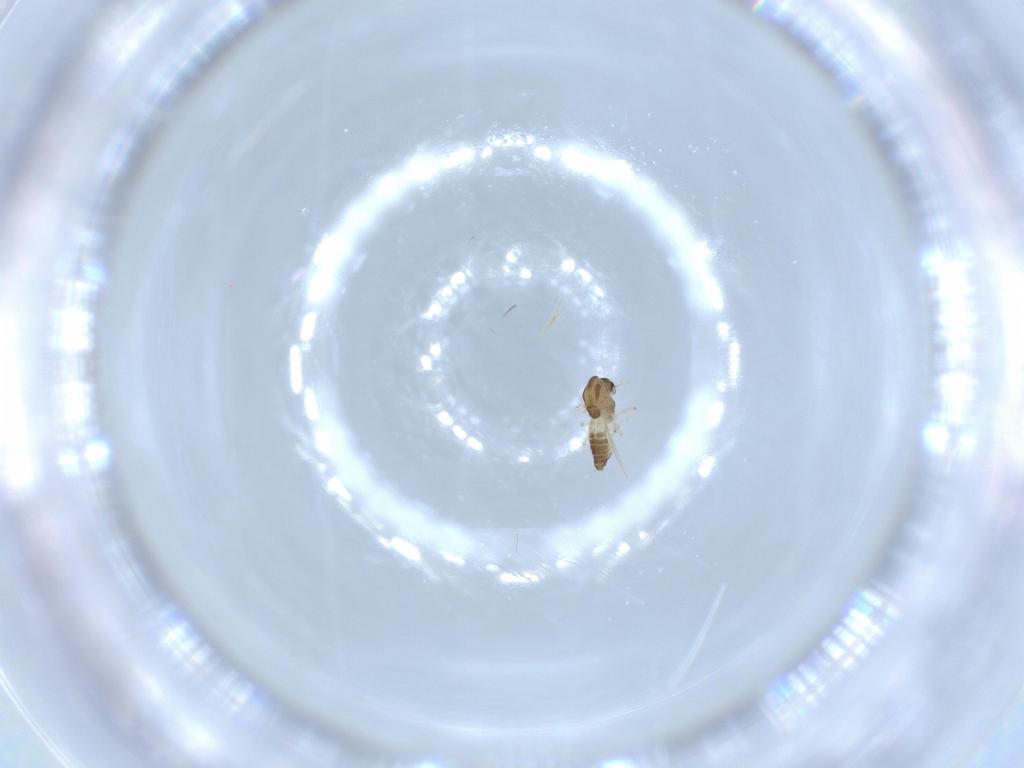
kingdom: Animalia
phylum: Arthropoda
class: Insecta
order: Diptera
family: Chironomidae
